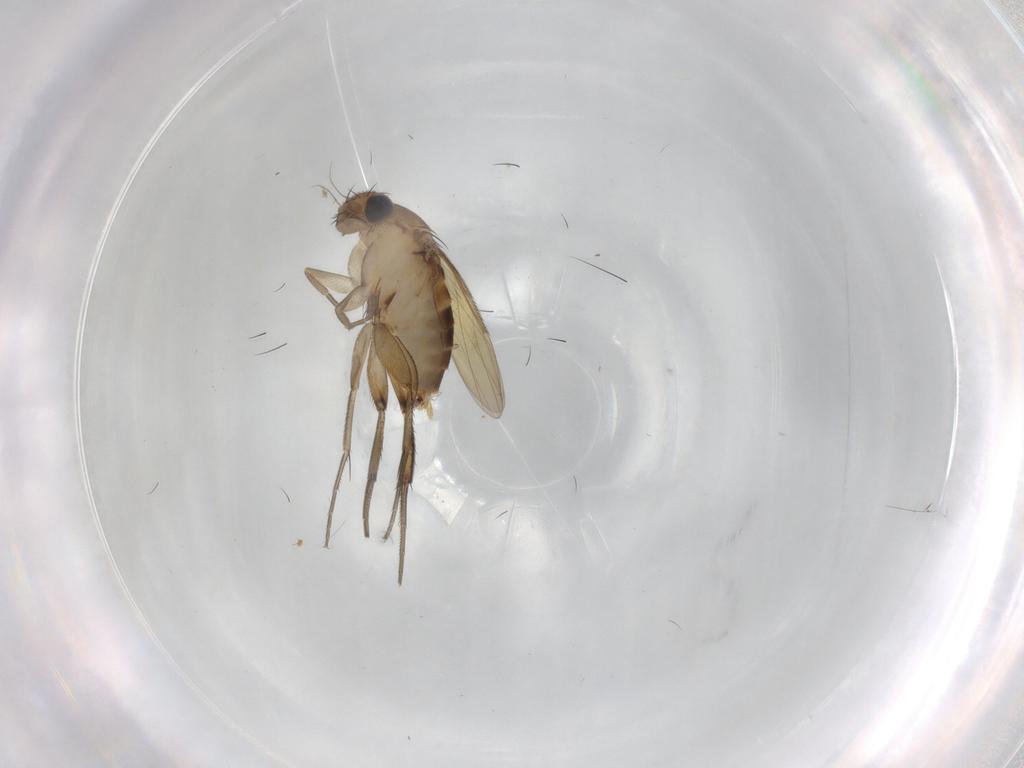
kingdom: Animalia
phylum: Arthropoda
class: Insecta
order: Diptera
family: Phoridae
